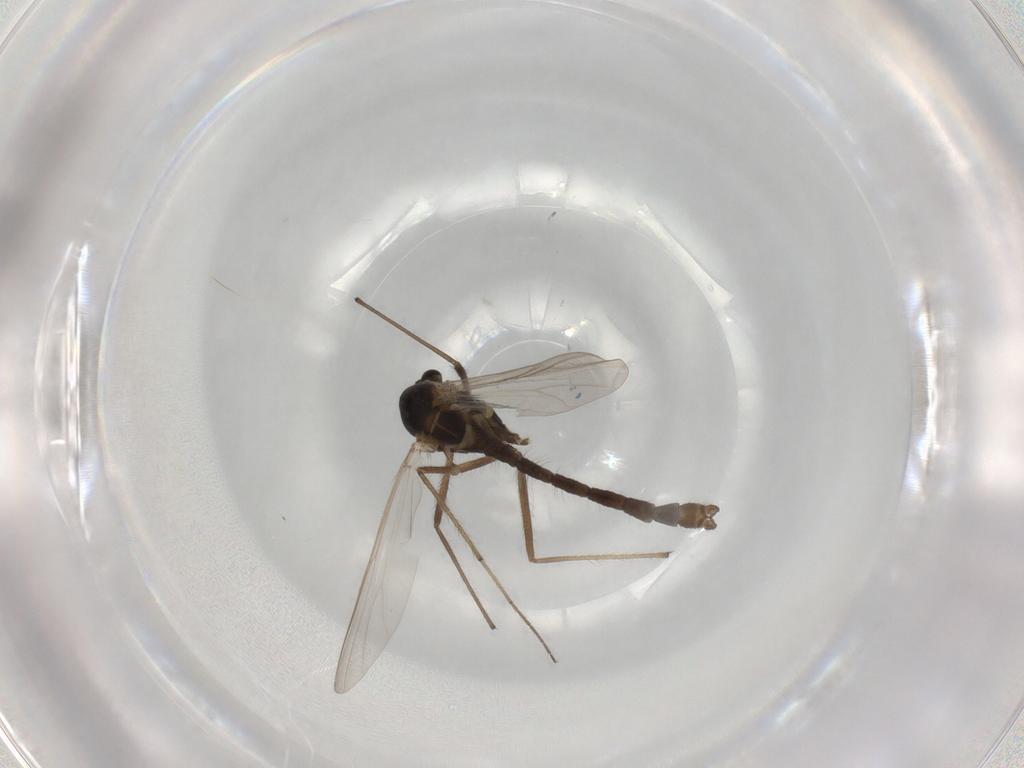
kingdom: Animalia
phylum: Arthropoda
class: Insecta
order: Diptera
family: Chironomidae
